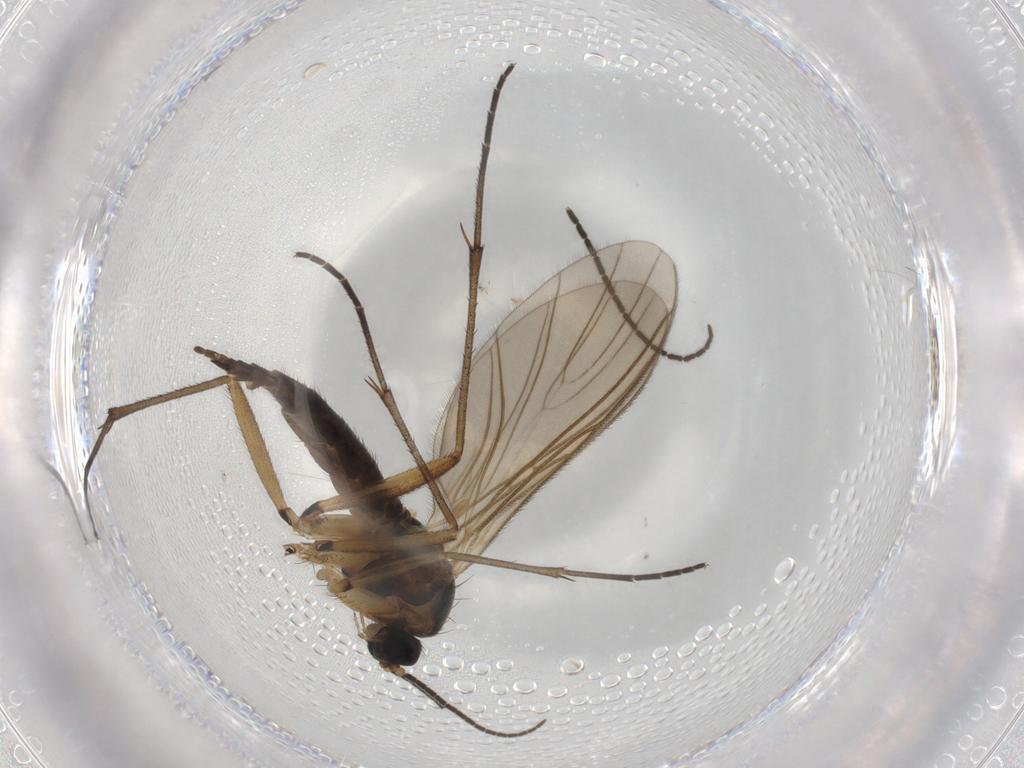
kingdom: Animalia
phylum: Arthropoda
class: Insecta
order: Diptera
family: Sciaridae
